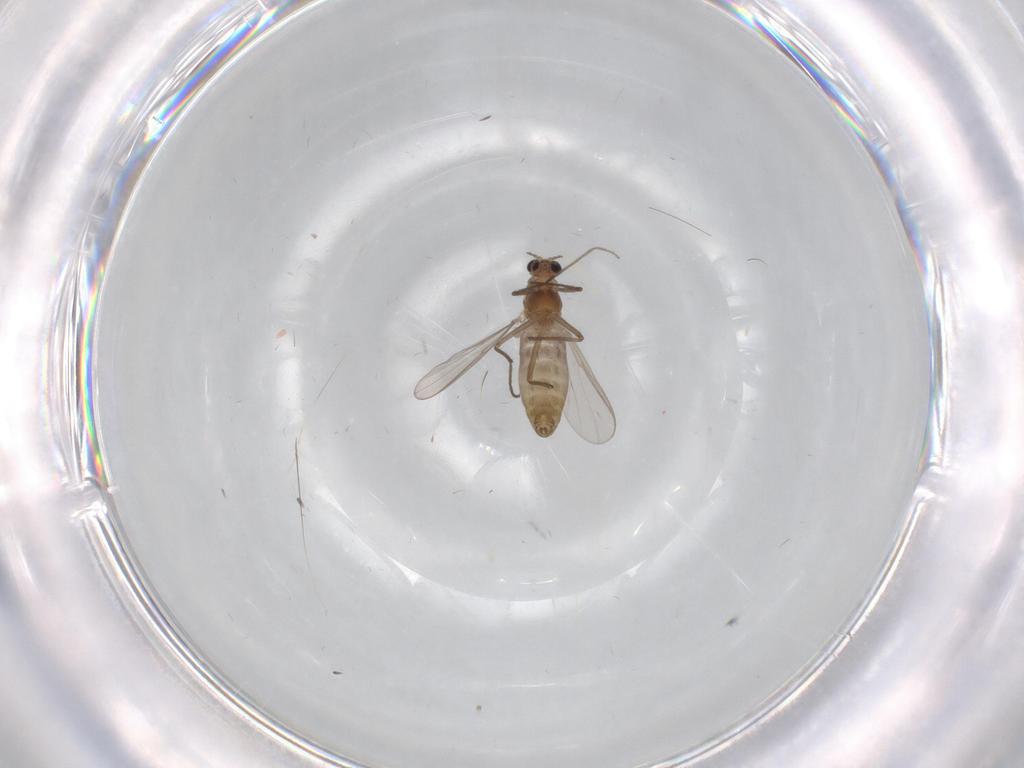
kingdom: Animalia
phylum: Arthropoda
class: Insecta
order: Diptera
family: Chironomidae
